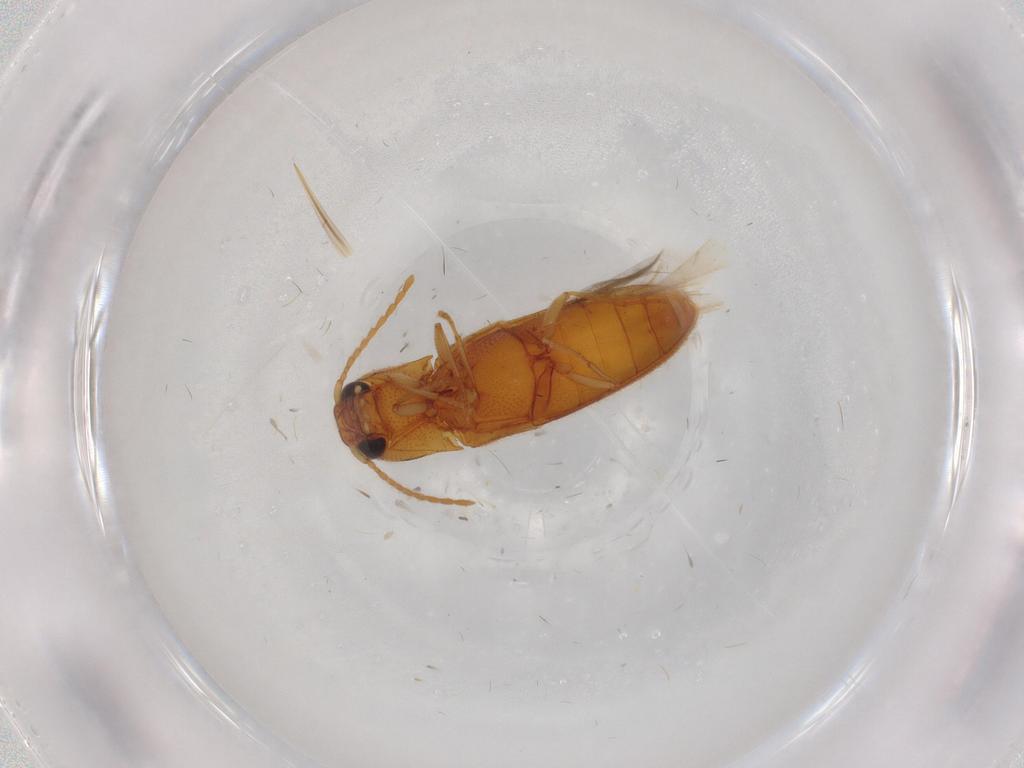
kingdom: Animalia
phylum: Arthropoda
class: Insecta
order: Coleoptera
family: Elateridae
